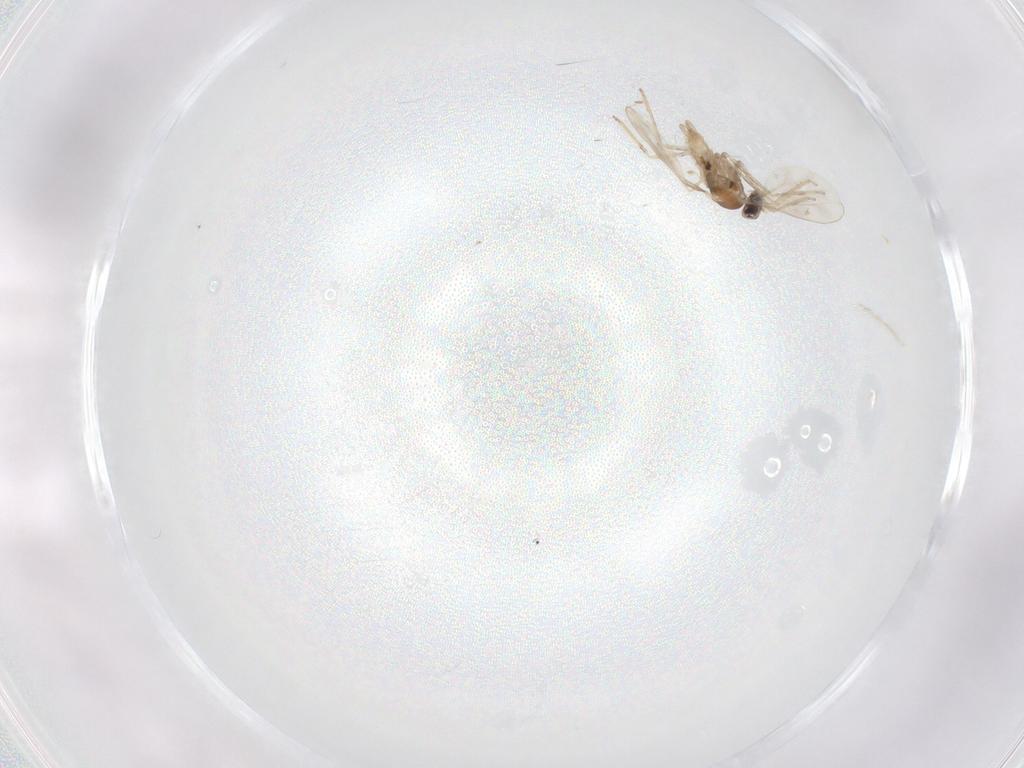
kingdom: Animalia
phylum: Arthropoda
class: Insecta
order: Diptera
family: Cecidomyiidae
